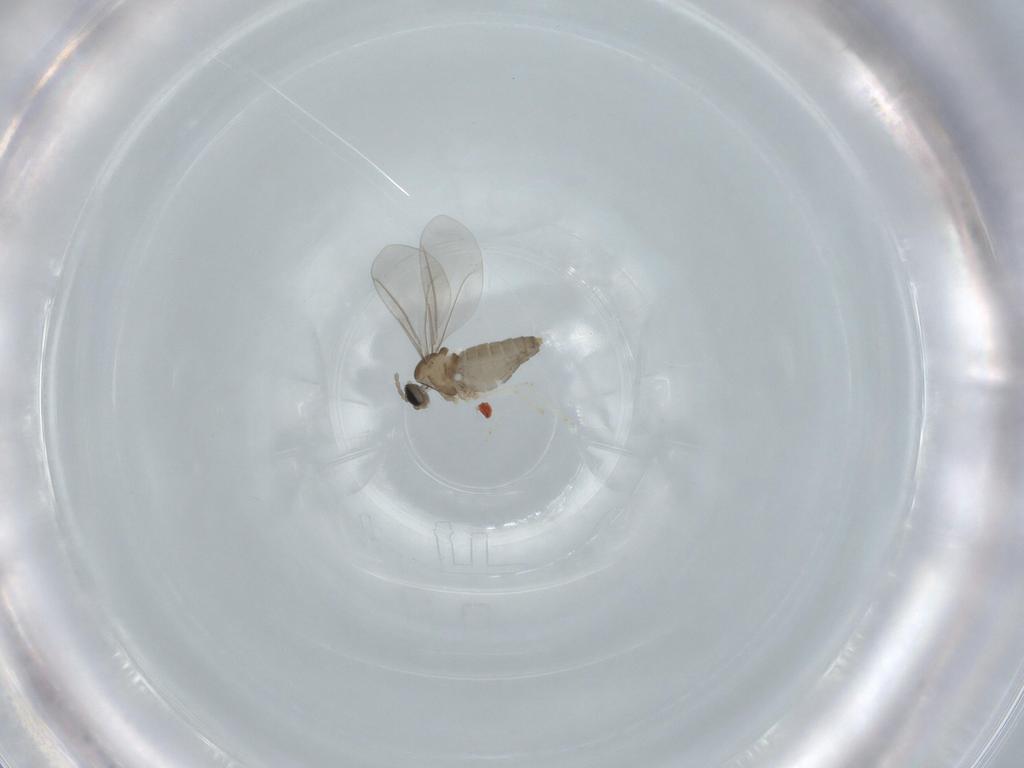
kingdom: Animalia
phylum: Arthropoda
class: Insecta
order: Diptera
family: Cecidomyiidae
